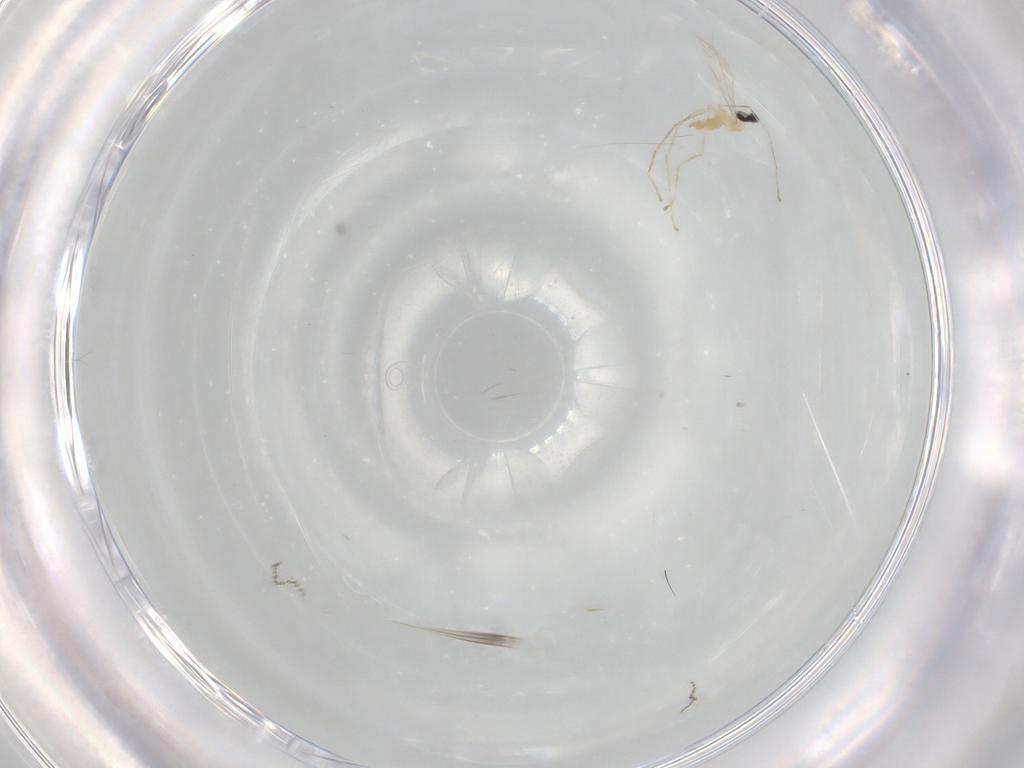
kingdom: Animalia
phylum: Arthropoda
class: Insecta
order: Diptera
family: Cecidomyiidae
